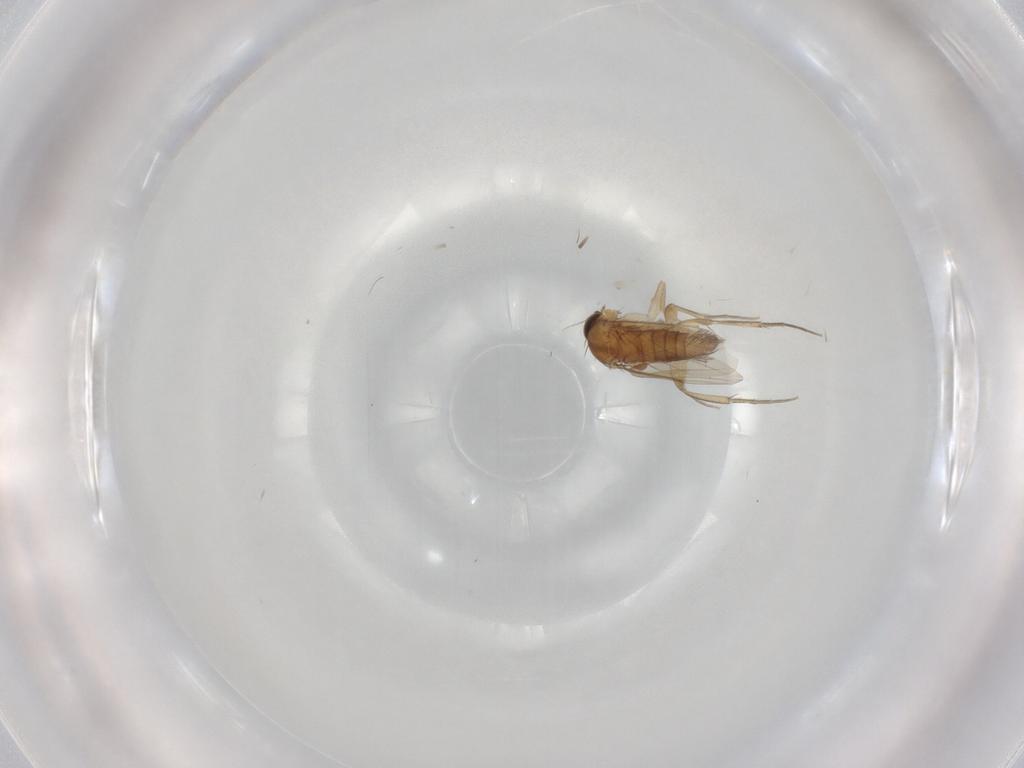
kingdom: Animalia
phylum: Arthropoda
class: Insecta
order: Diptera
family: Phoridae
